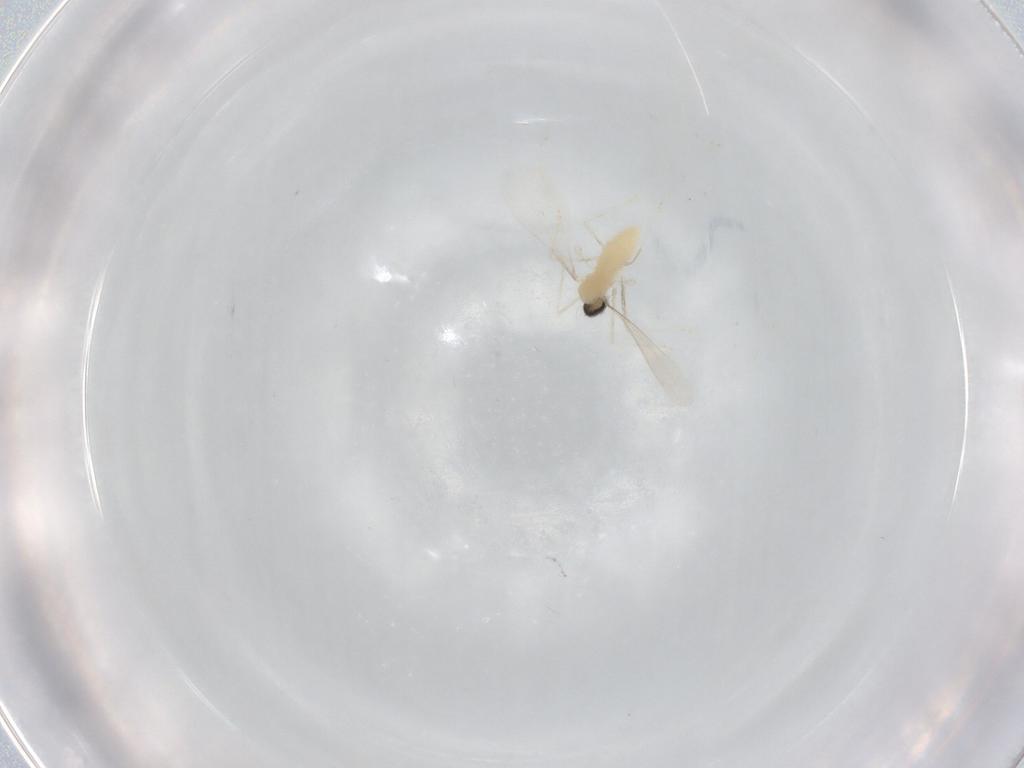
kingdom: Animalia
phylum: Arthropoda
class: Insecta
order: Diptera
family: Cecidomyiidae
